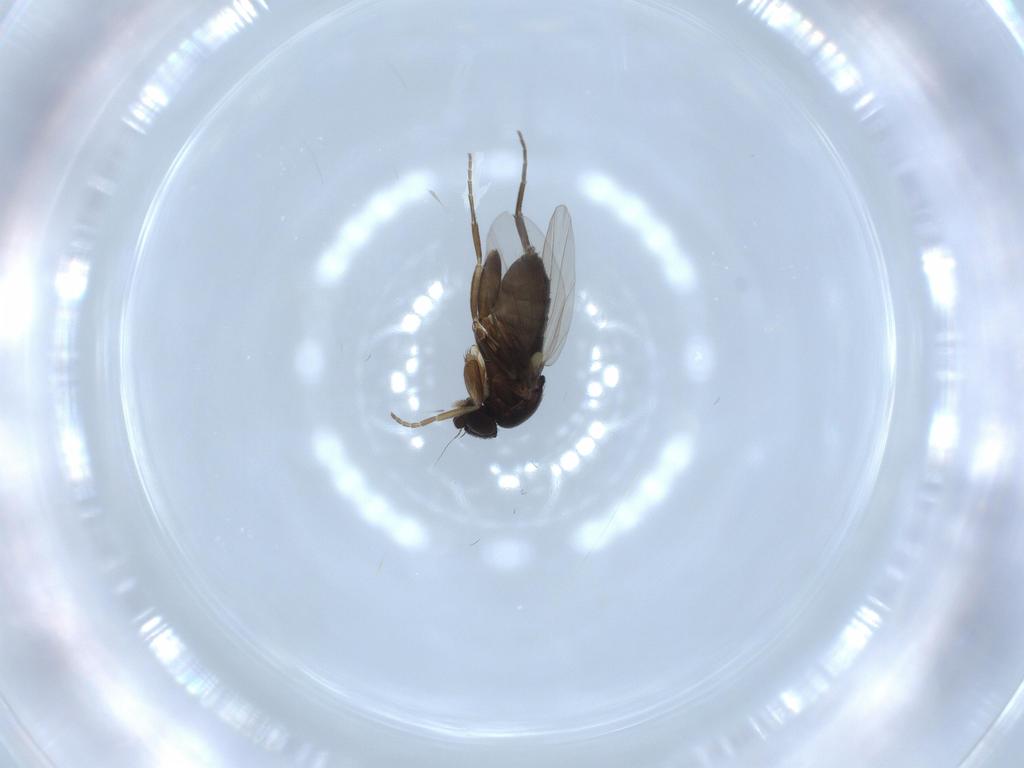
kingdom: Animalia
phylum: Arthropoda
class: Insecta
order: Diptera
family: Phoridae
